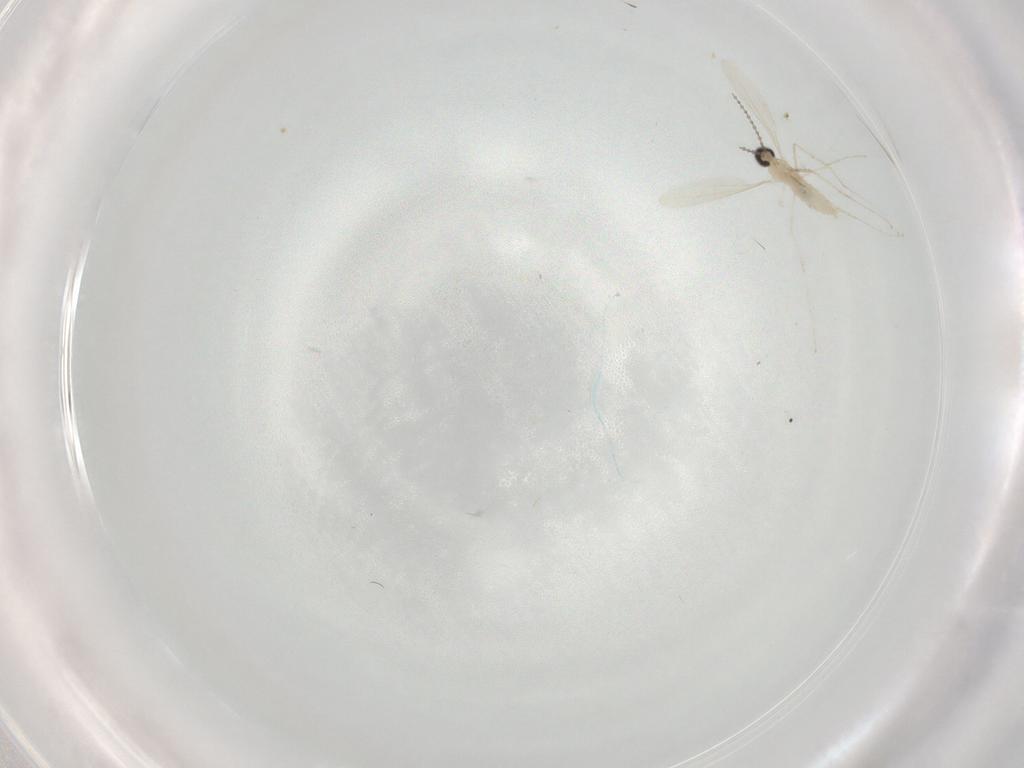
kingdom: Animalia
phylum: Arthropoda
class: Insecta
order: Diptera
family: Cecidomyiidae
